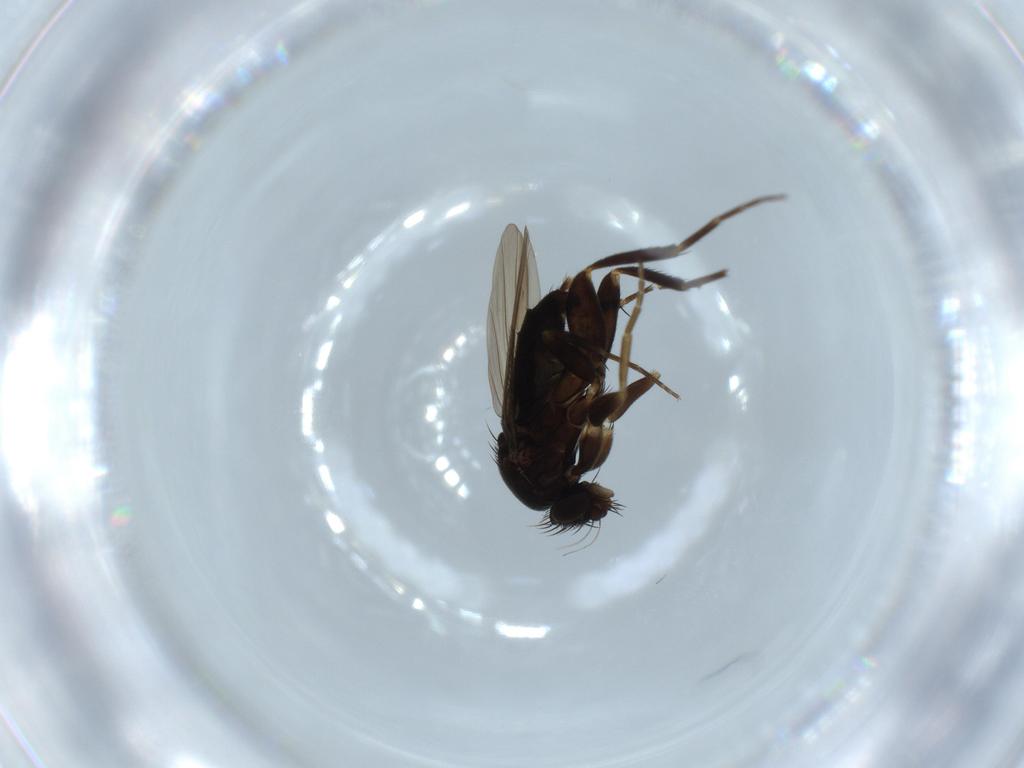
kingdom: Animalia
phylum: Arthropoda
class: Insecta
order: Diptera
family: Phoridae
